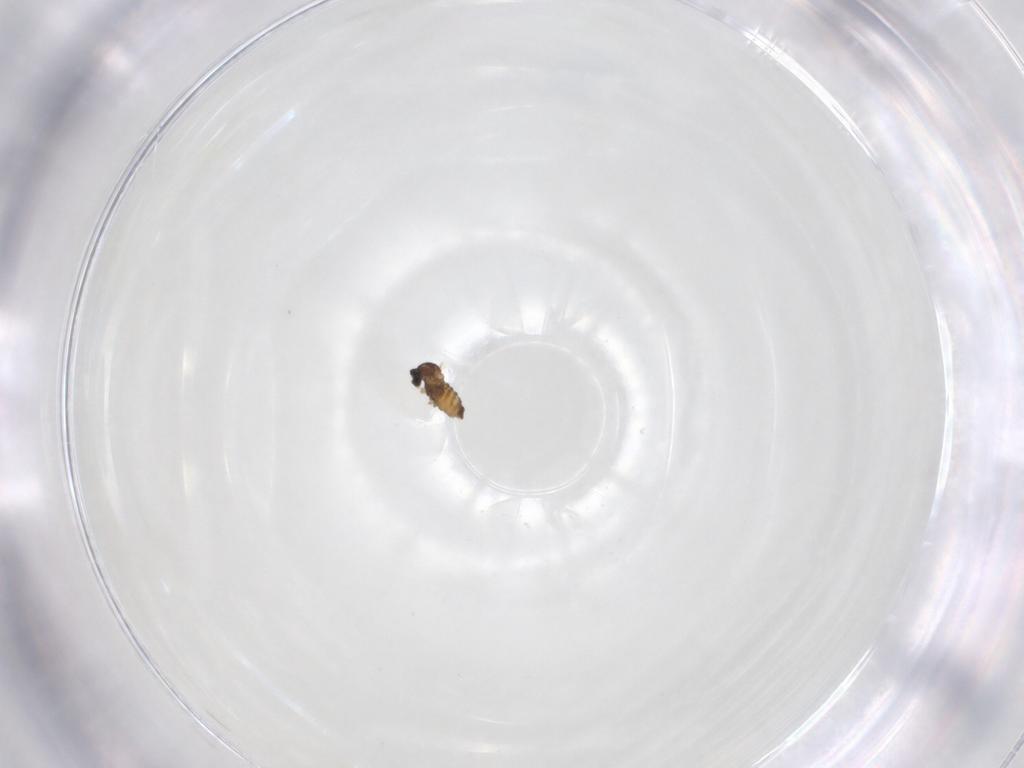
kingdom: Animalia
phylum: Arthropoda
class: Insecta
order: Diptera
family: Cecidomyiidae
